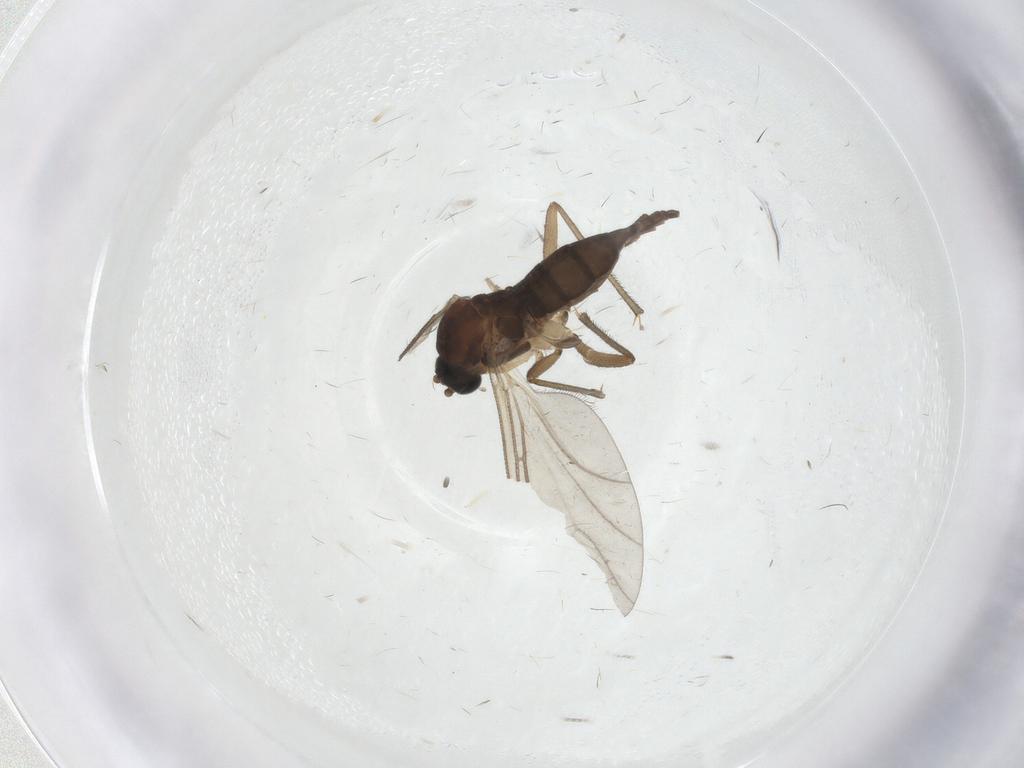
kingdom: Animalia
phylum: Arthropoda
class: Insecta
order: Diptera
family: Sciaridae
